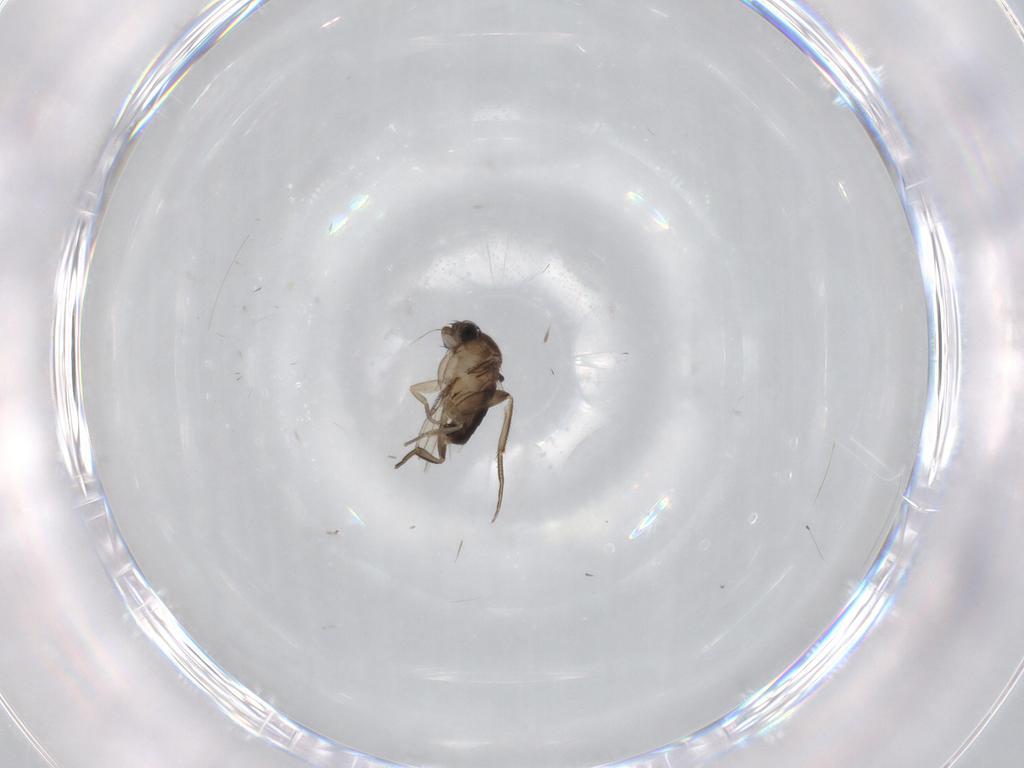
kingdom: Animalia
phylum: Arthropoda
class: Insecta
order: Diptera
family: Phoridae
